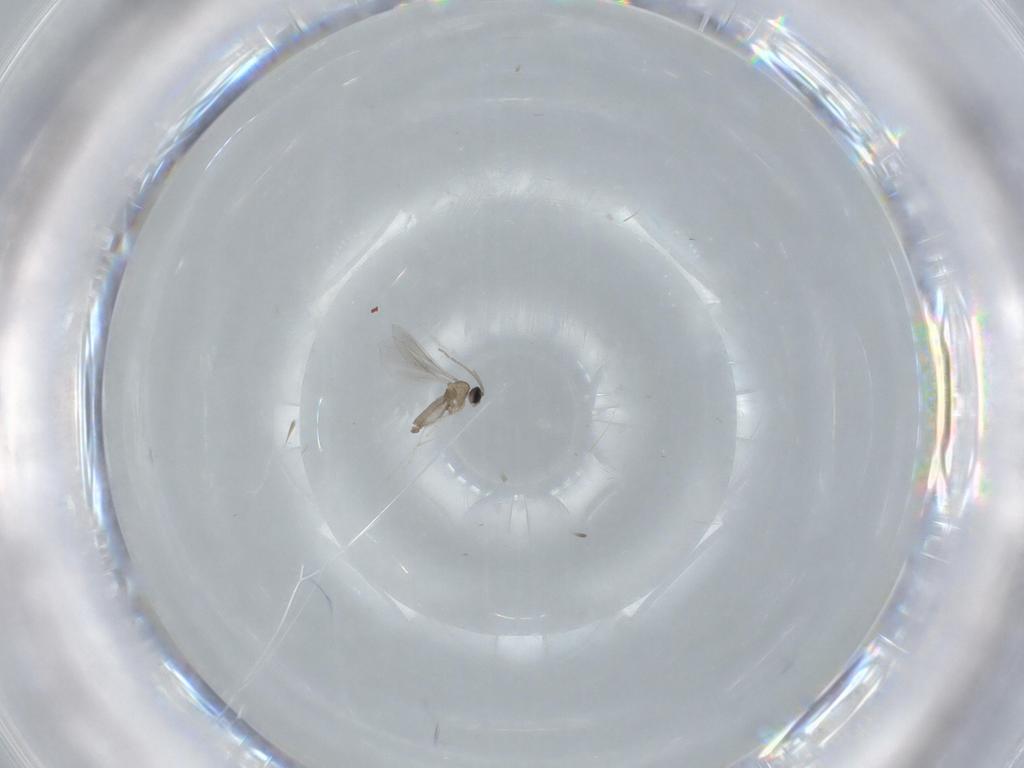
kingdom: Animalia
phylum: Arthropoda
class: Insecta
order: Diptera
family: Cecidomyiidae
